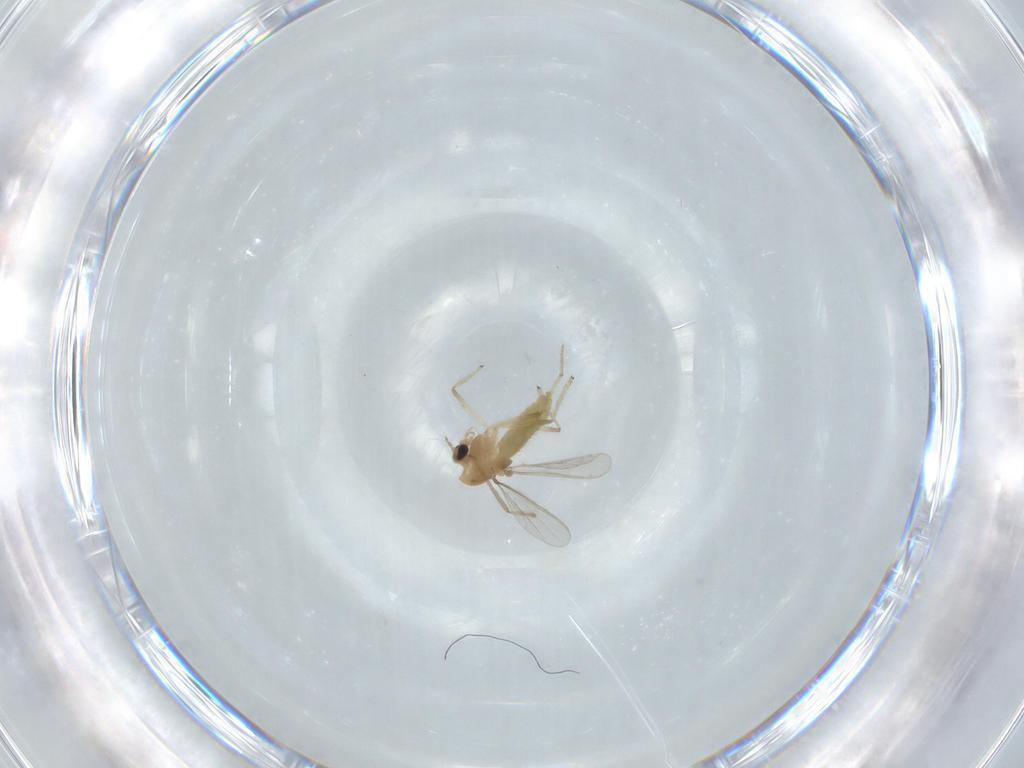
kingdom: Animalia
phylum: Arthropoda
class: Insecta
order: Diptera
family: Chironomidae
